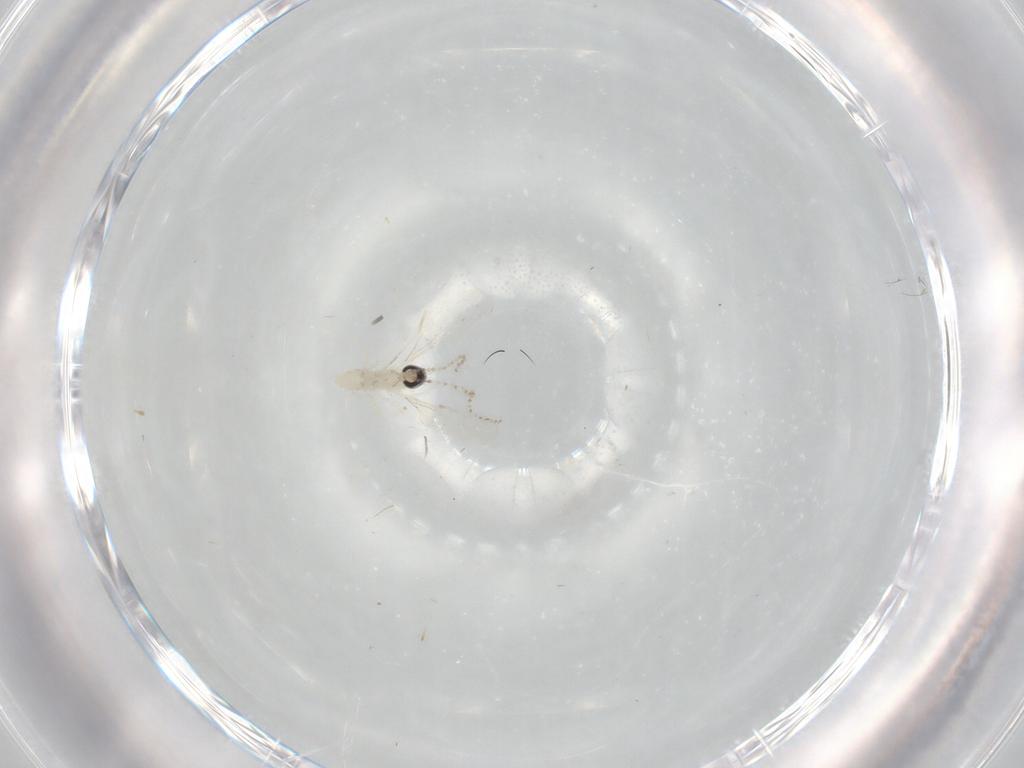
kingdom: Animalia
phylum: Arthropoda
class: Insecta
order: Diptera
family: Cecidomyiidae
